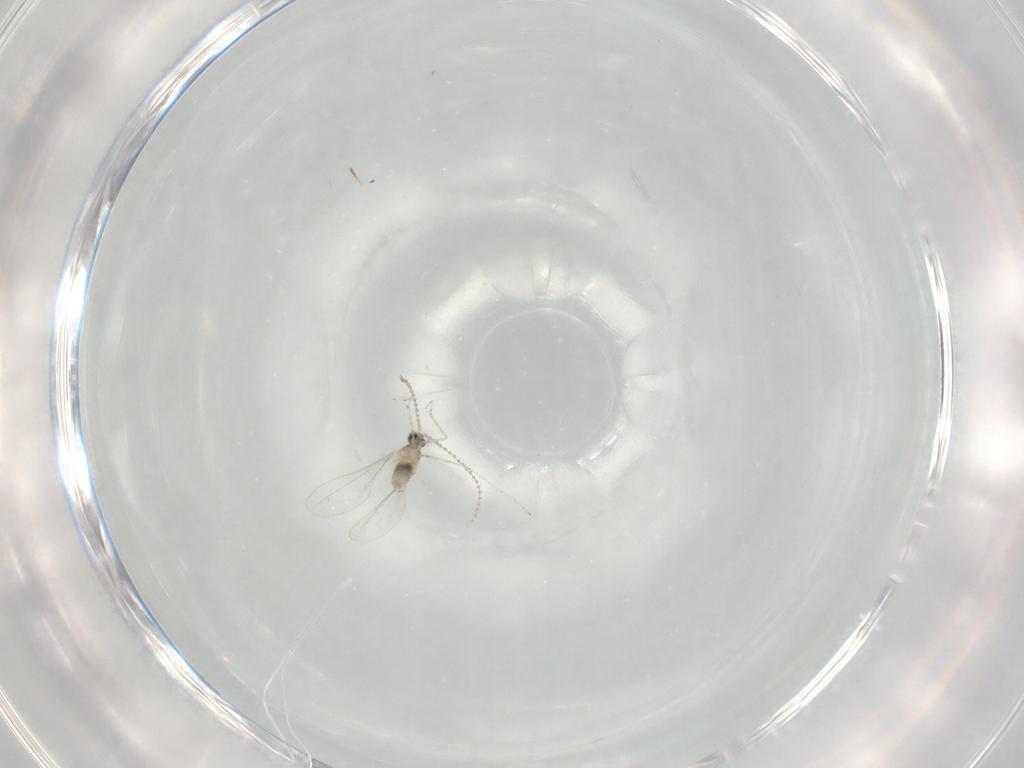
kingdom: Animalia
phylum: Arthropoda
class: Insecta
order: Diptera
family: Cecidomyiidae
